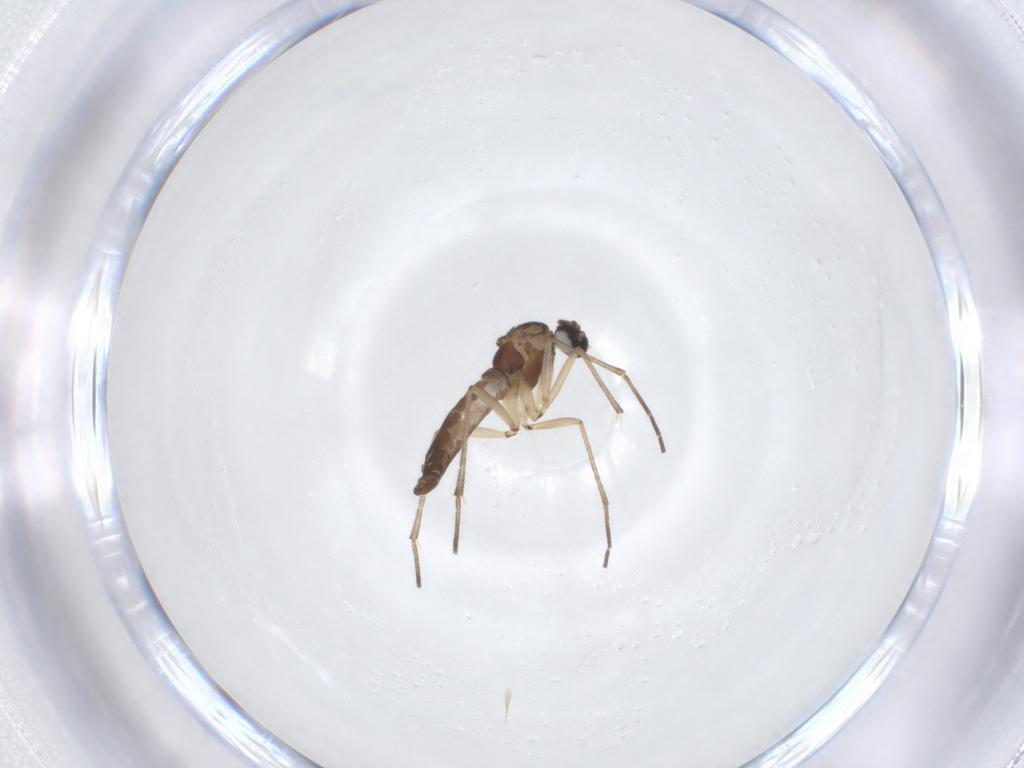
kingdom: Animalia
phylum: Arthropoda
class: Insecta
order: Diptera
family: Sciaridae
